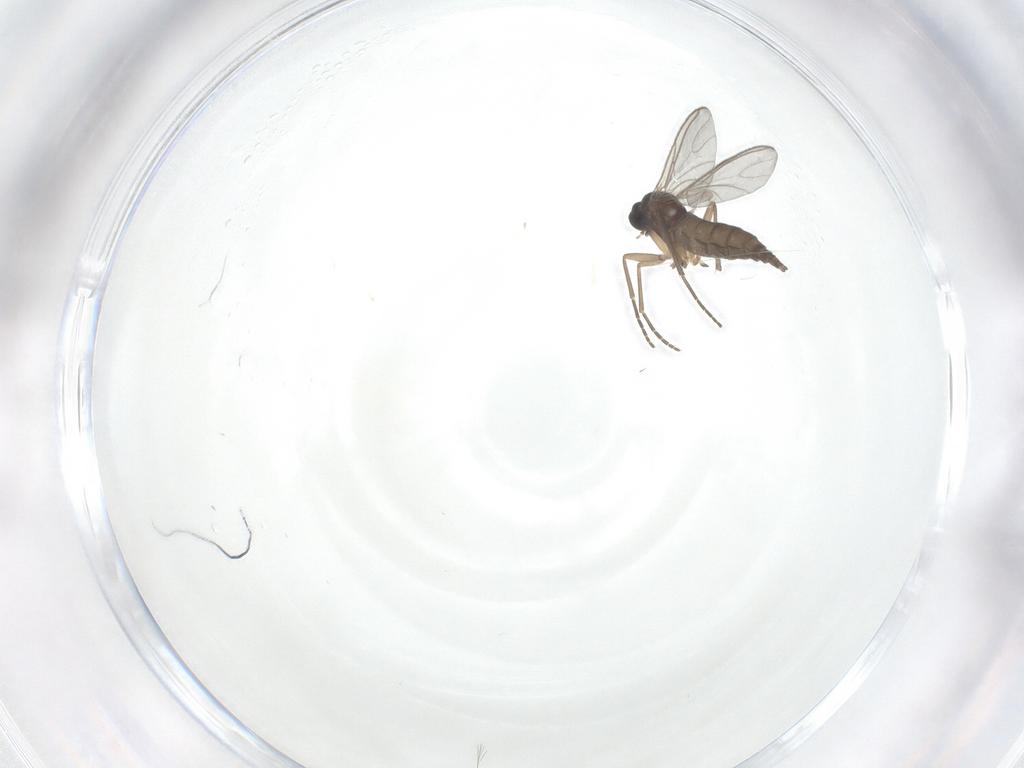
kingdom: Animalia
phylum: Arthropoda
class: Insecta
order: Diptera
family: Sciaridae
